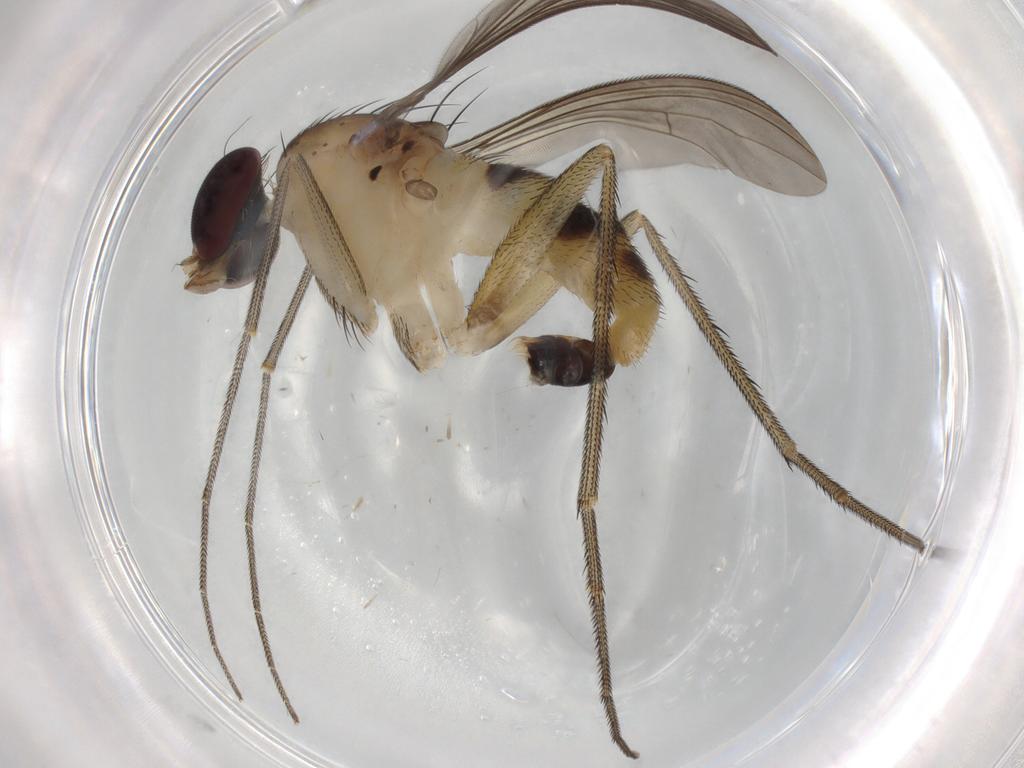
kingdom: Animalia
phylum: Arthropoda
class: Insecta
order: Diptera
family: Dolichopodidae
